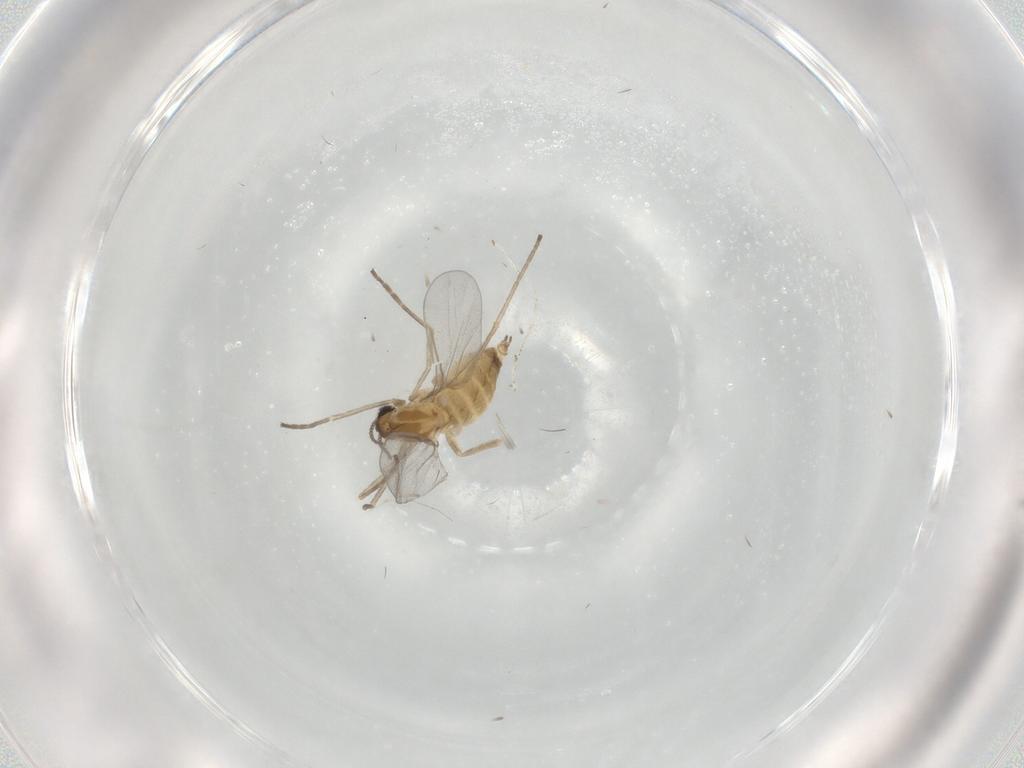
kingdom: Animalia
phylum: Arthropoda
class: Insecta
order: Diptera
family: Cecidomyiidae
